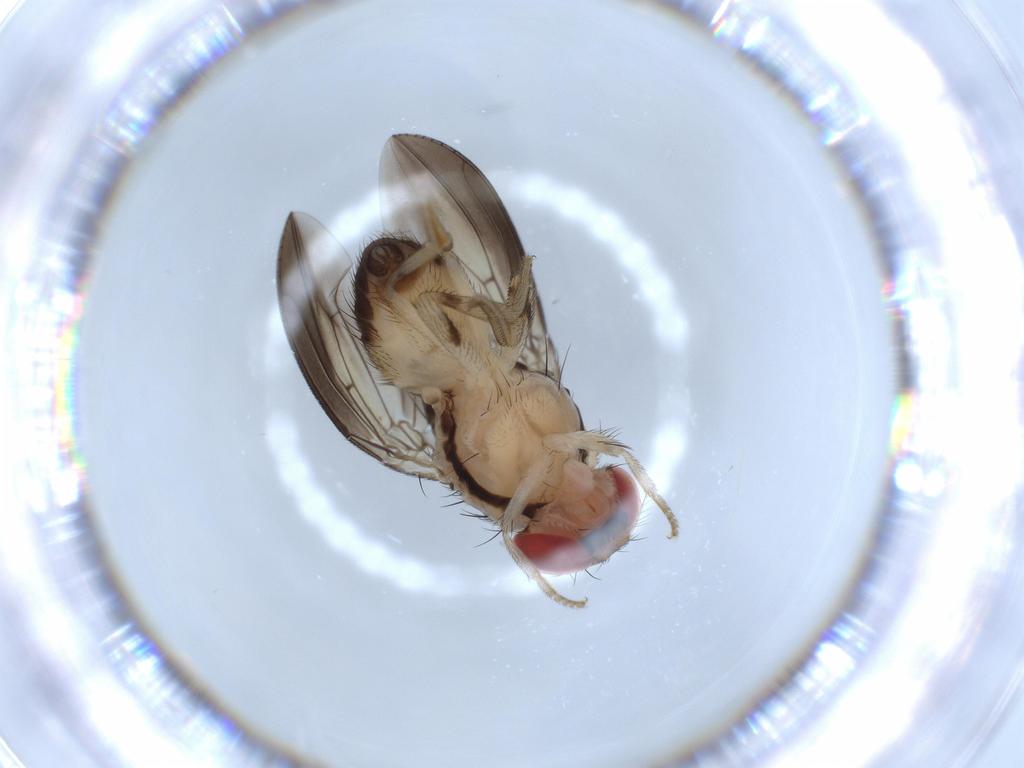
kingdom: Animalia
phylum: Arthropoda
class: Insecta
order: Diptera
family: Drosophilidae
